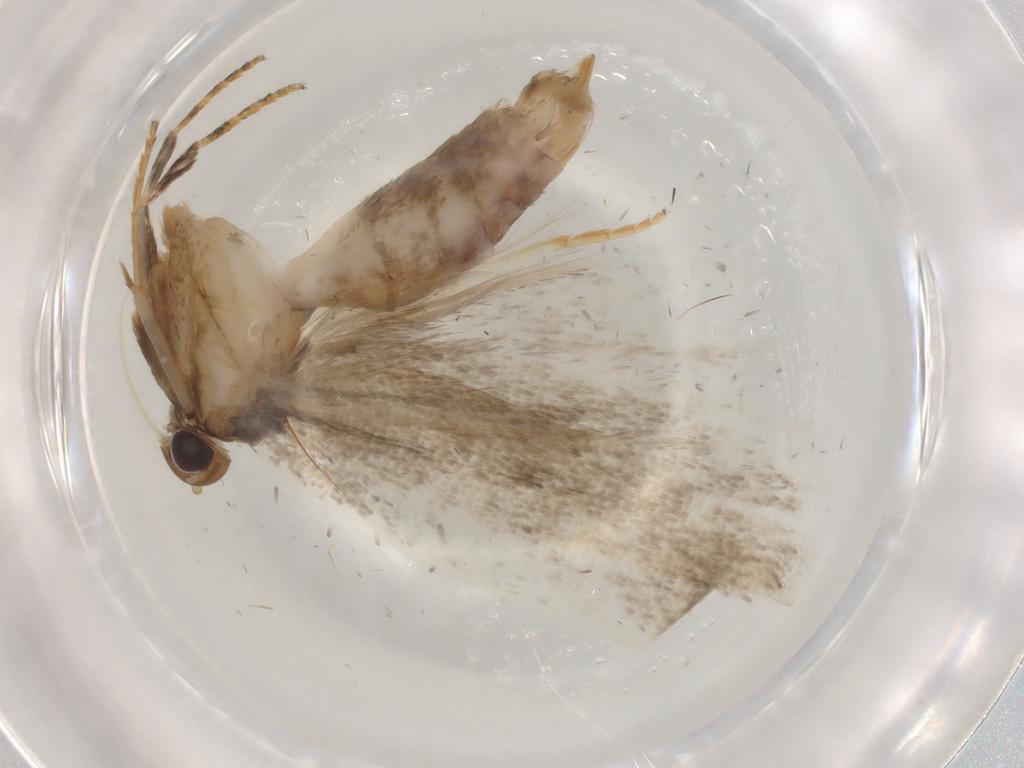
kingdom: Animalia
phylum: Arthropoda
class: Insecta
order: Lepidoptera
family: Gelechiidae
